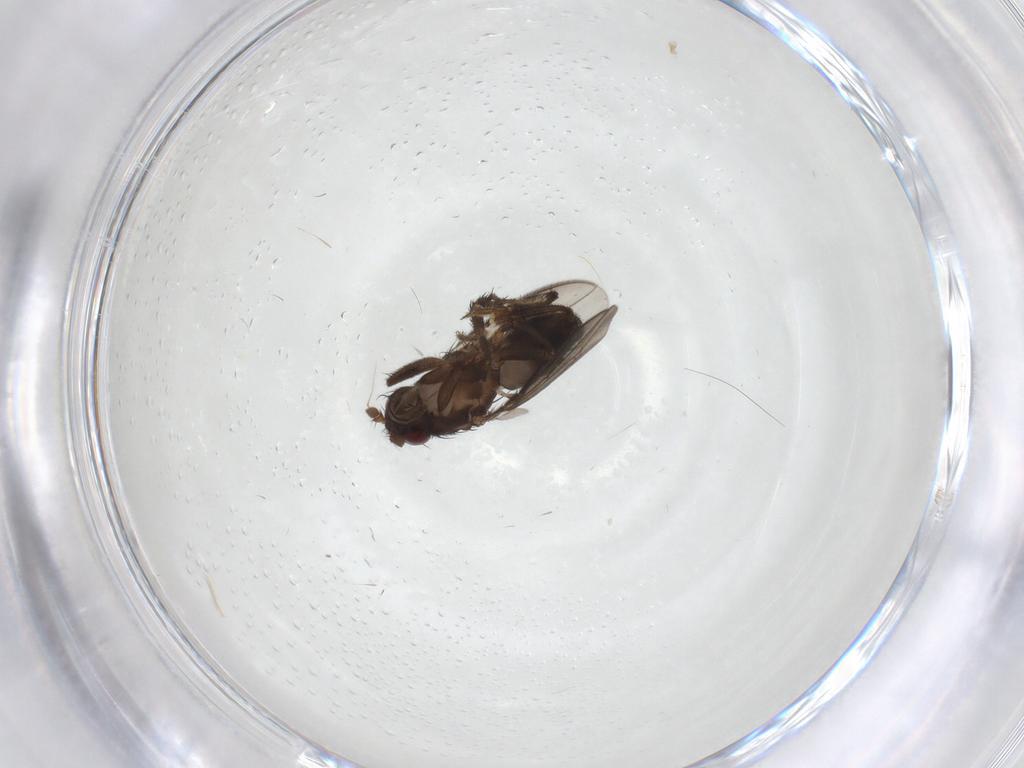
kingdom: Animalia
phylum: Arthropoda
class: Insecta
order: Diptera
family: Sphaeroceridae
